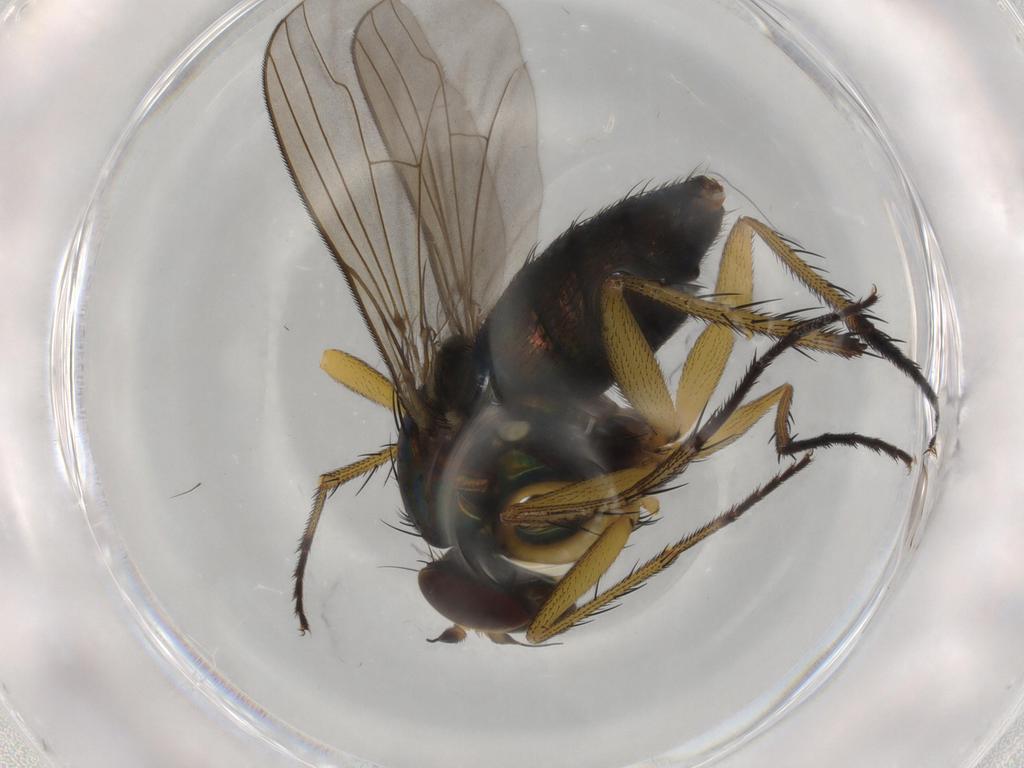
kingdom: Animalia
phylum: Arthropoda
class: Insecta
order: Diptera
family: Dolichopodidae
